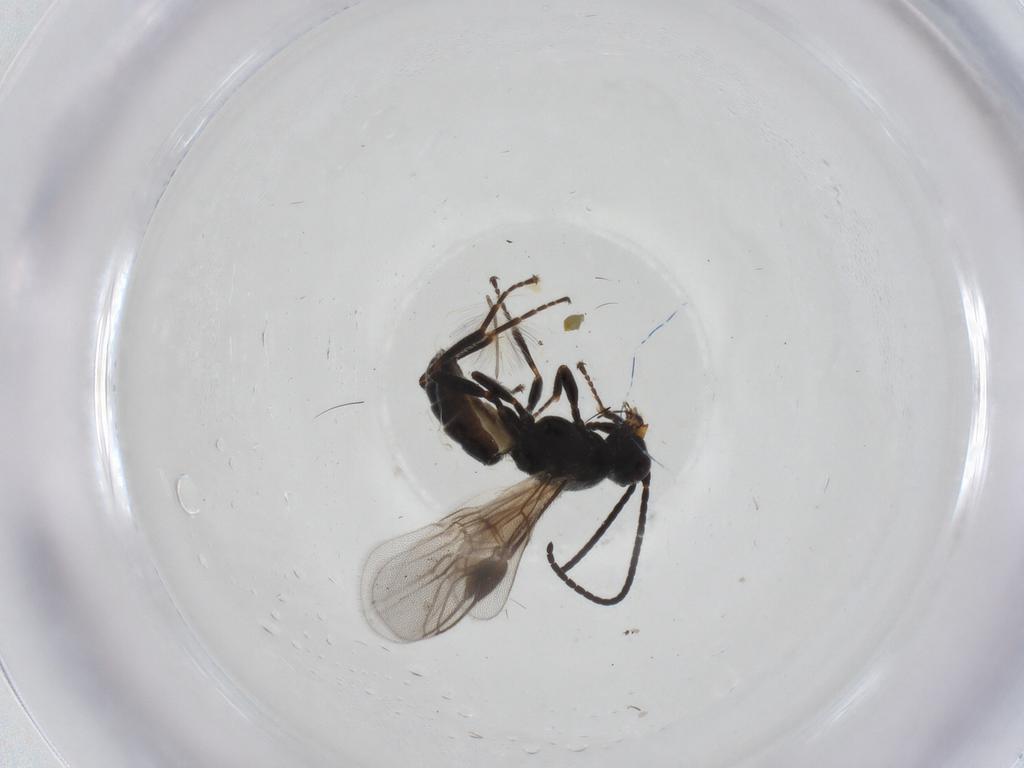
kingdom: Animalia
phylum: Arthropoda
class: Insecta
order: Hymenoptera
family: Braconidae
